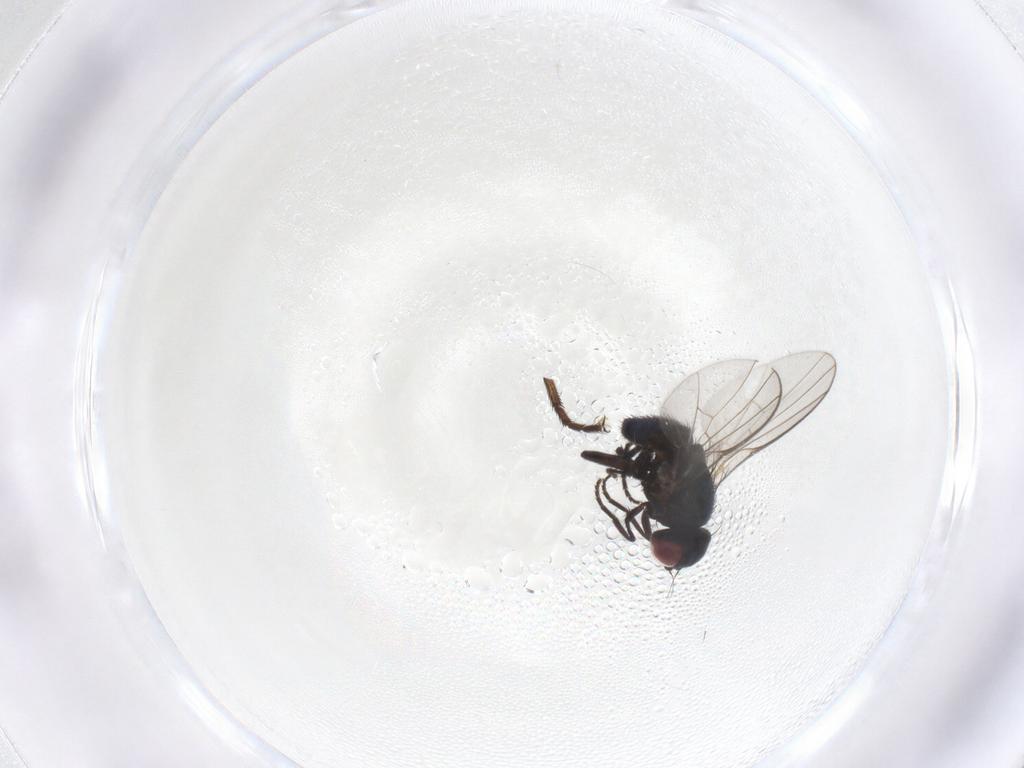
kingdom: Animalia
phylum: Arthropoda
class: Insecta
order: Diptera
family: Agromyzidae
